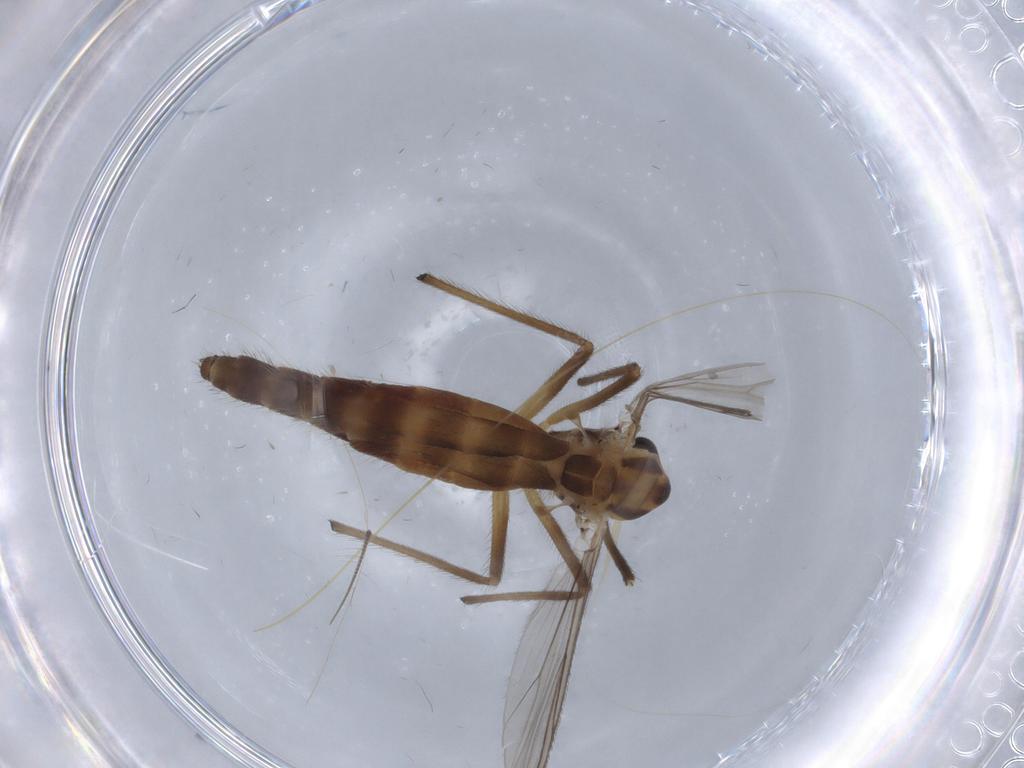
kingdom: Animalia
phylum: Arthropoda
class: Insecta
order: Diptera
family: Chironomidae
